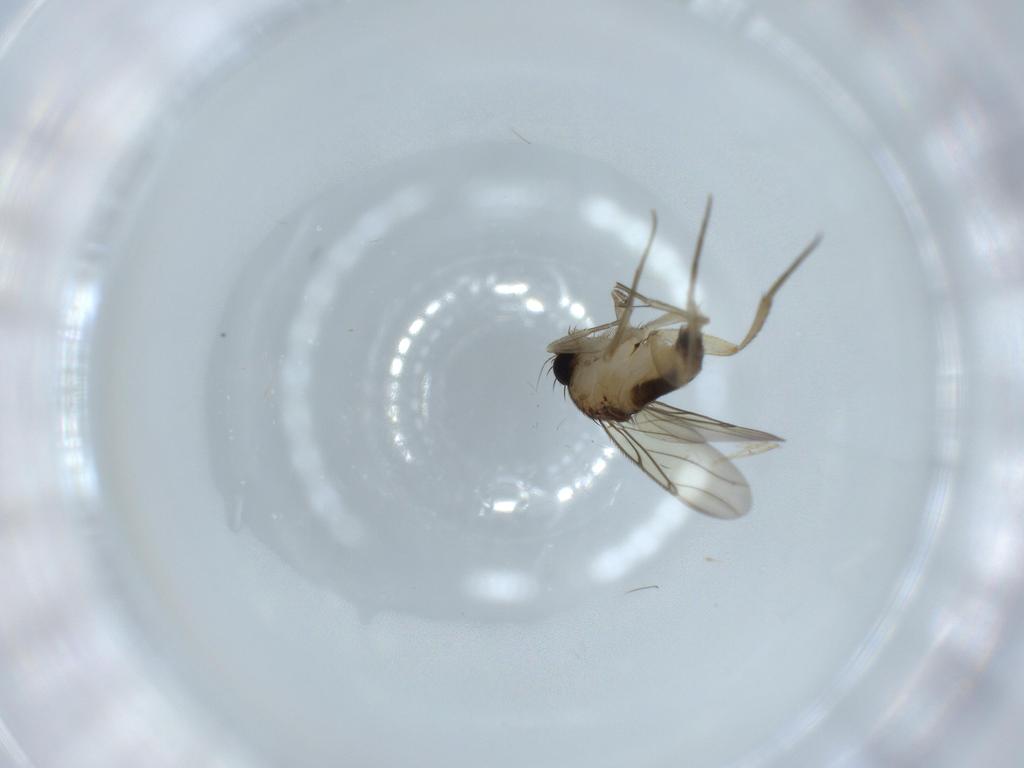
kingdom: Animalia
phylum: Arthropoda
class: Insecta
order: Diptera
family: Phoridae
